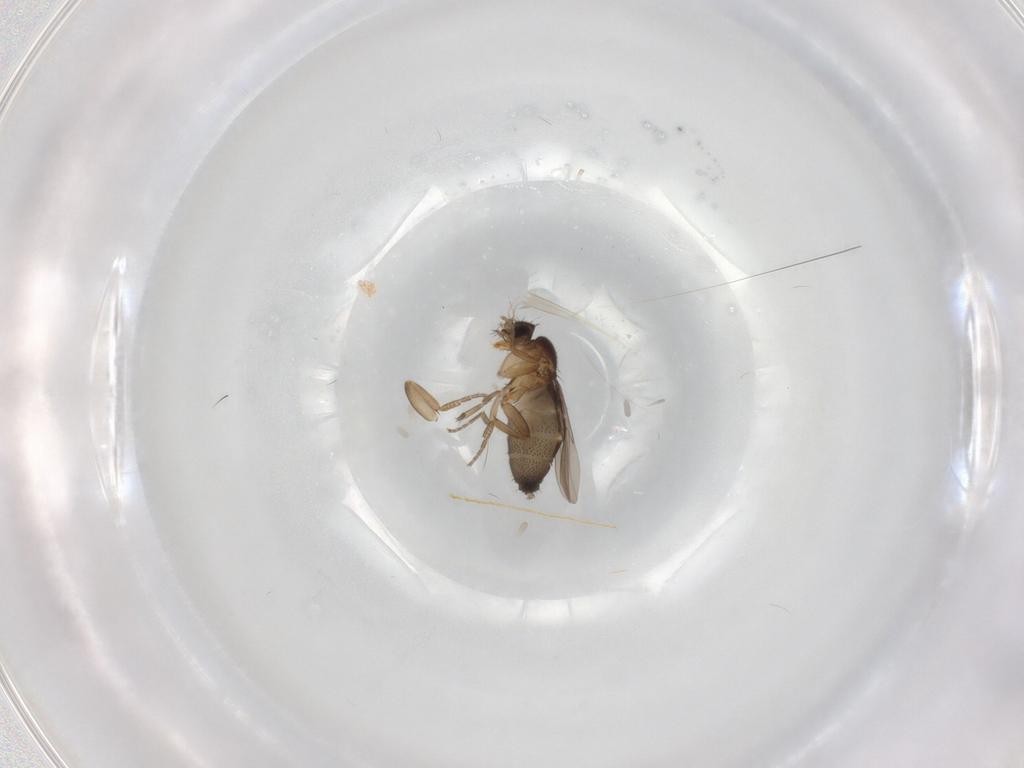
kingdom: Animalia
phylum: Arthropoda
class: Insecta
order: Diptera
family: Phoridae
